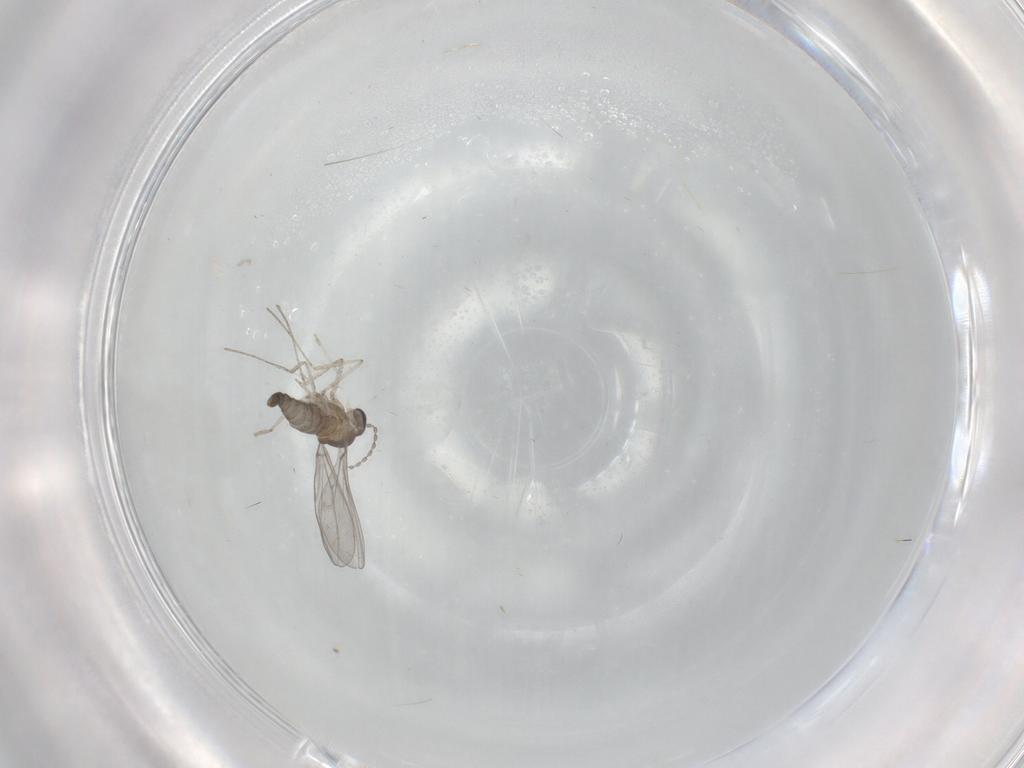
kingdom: Animalia
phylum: Arthropoda
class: Insecta
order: Diptera
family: Cecidomyiidae
